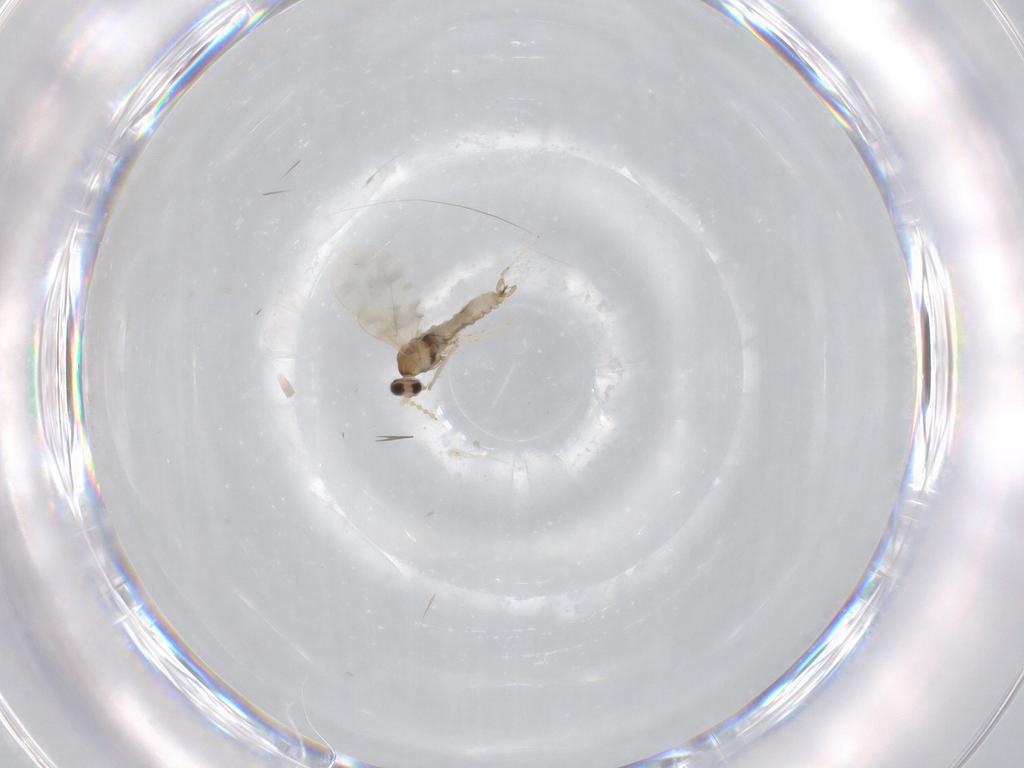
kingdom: Animalia
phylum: Arthropoda
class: Insecta
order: Diptera
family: Cecidomyiidae
